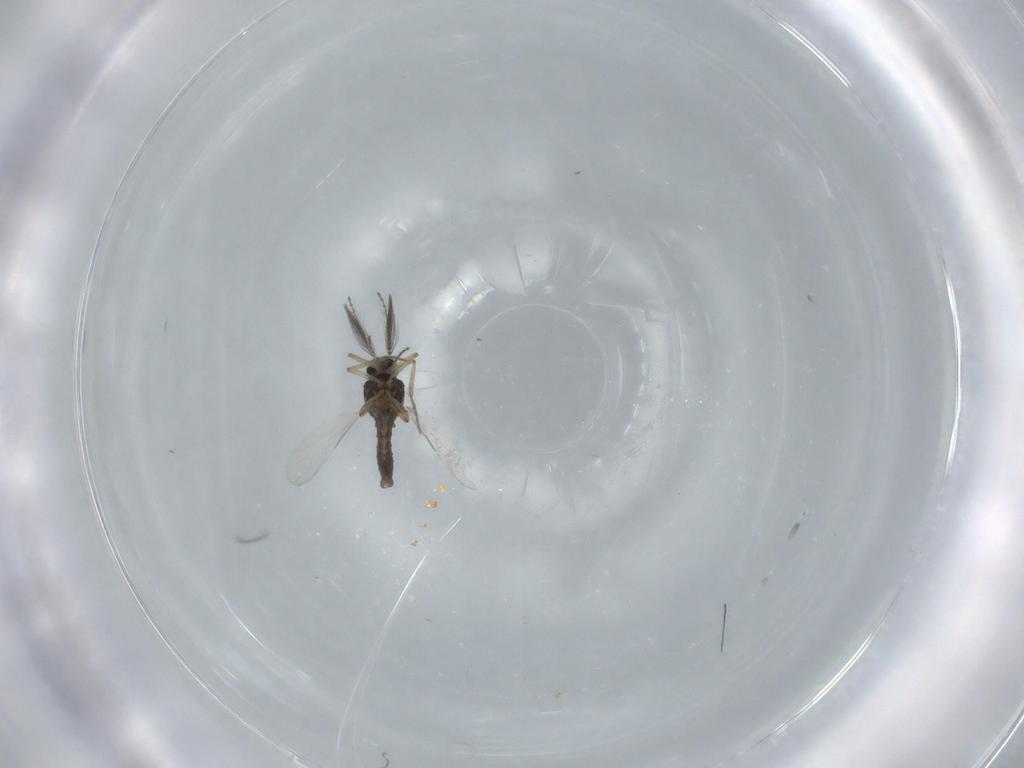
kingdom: Animalia
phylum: Arthropoda
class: Insecta
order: Diptera
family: Ceratopogonidae
